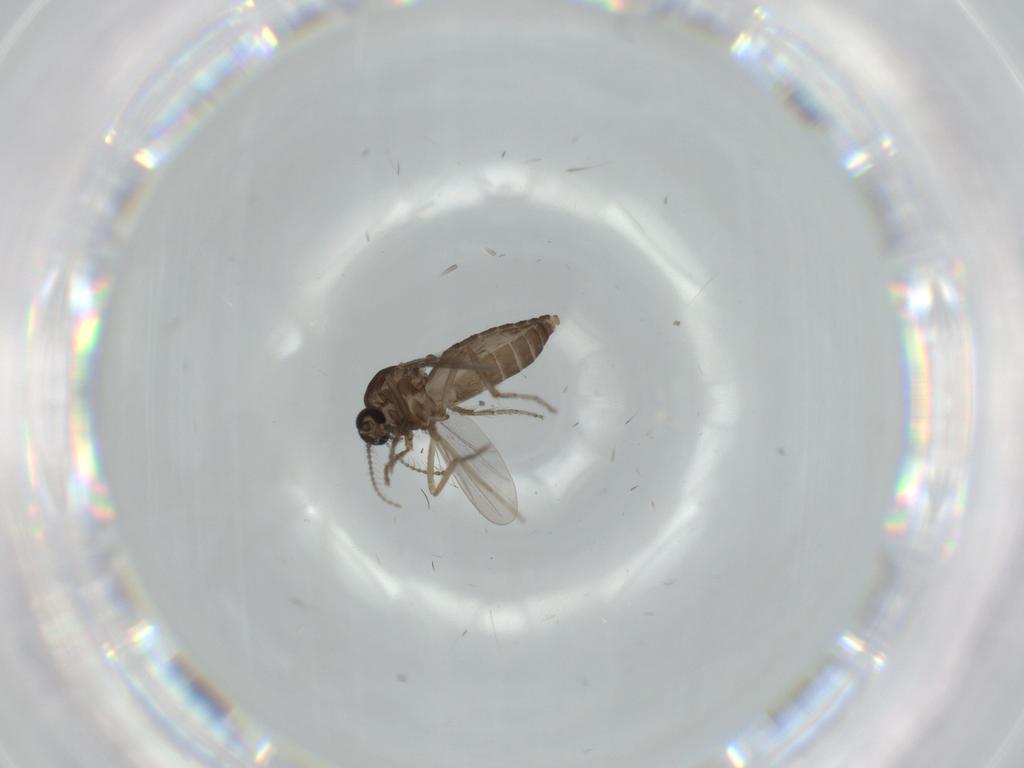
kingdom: Animalia
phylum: Arthropoda
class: Insecta
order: Diptera
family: Ceratopogonidae
